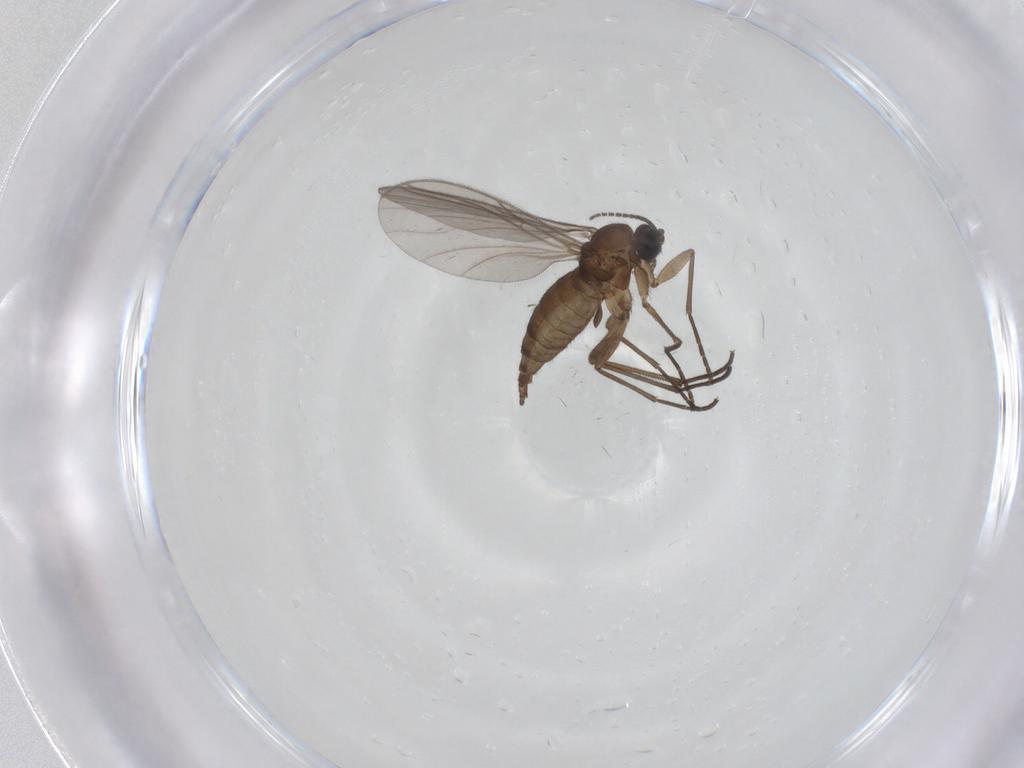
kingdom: Animalia
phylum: Arthropoda
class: Insecta
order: Diptera
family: Sciaridae
